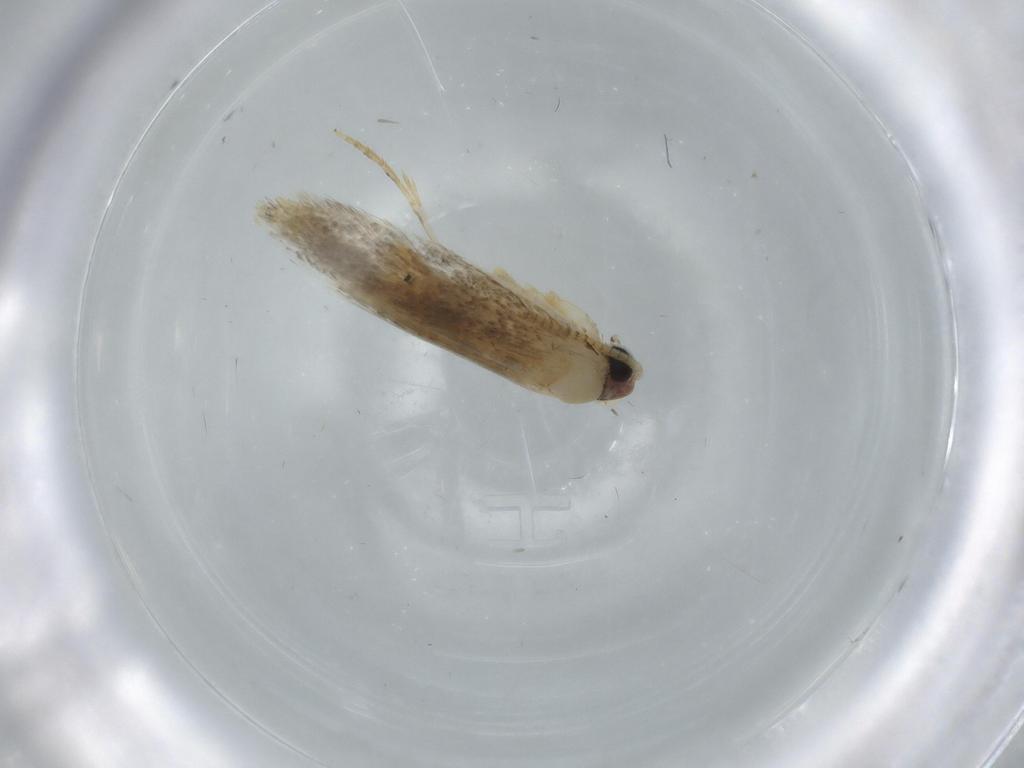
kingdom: Animalia
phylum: Arthropoda
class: Insecta
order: Lepidoptera
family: Tineidae
